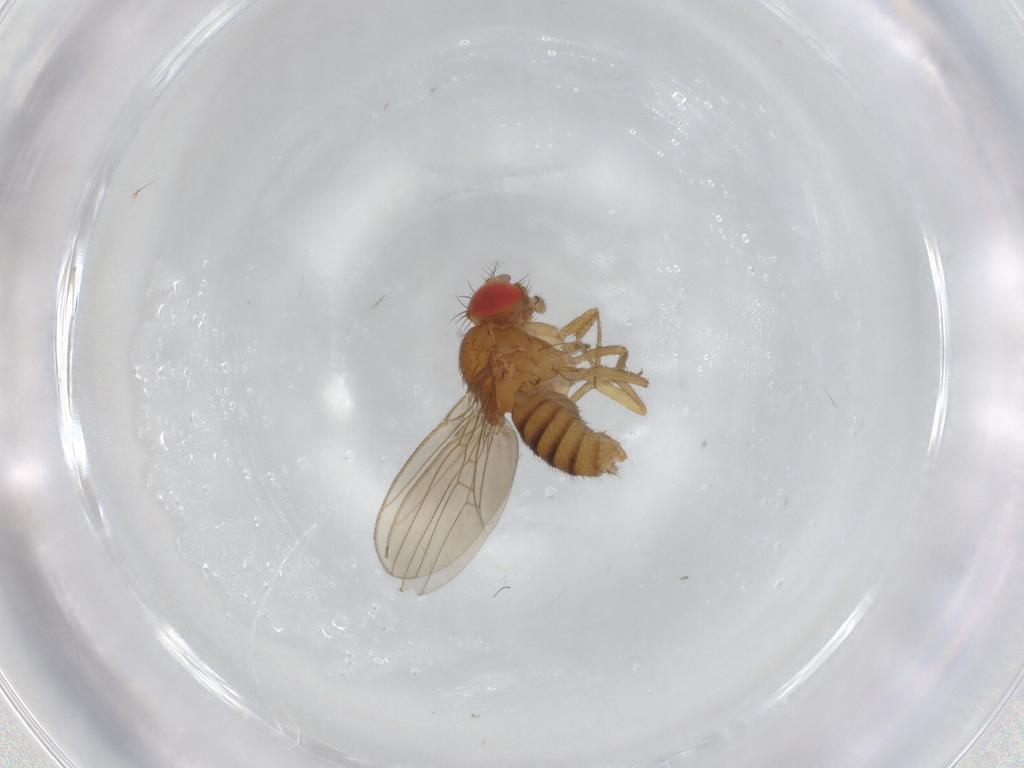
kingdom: Animalia
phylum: Arthropoda
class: Insecta
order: Diptera
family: Drosophilidae
